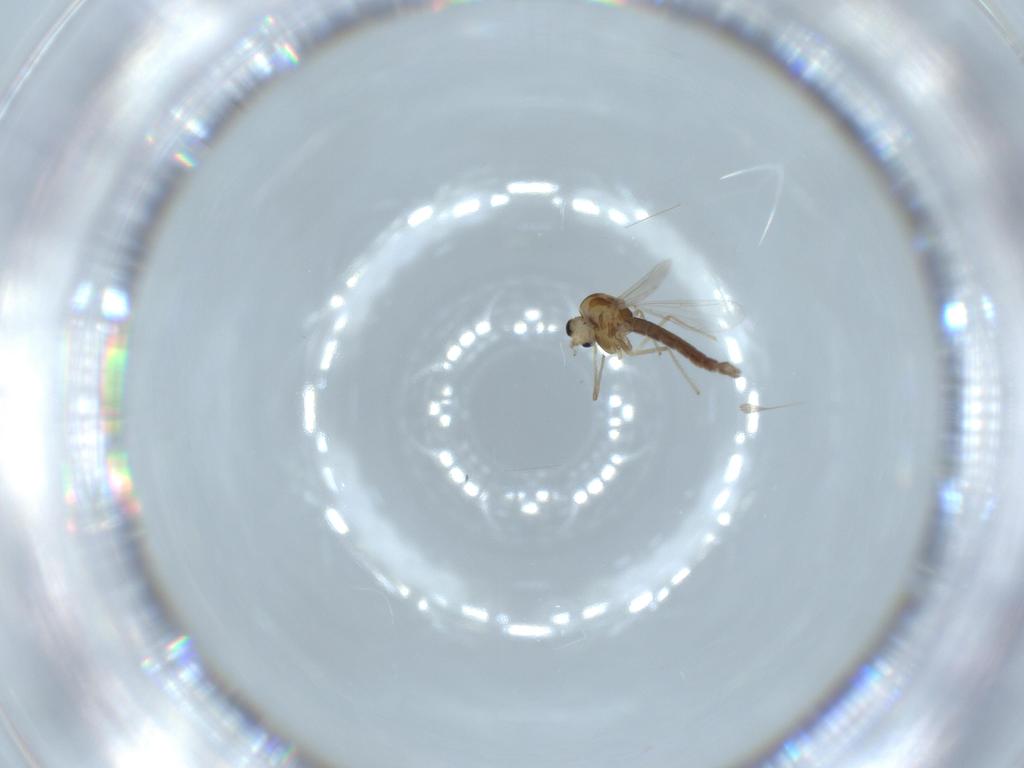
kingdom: Animalia
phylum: Arthropoda
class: Insecta
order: Diptera
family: Chironomidae
